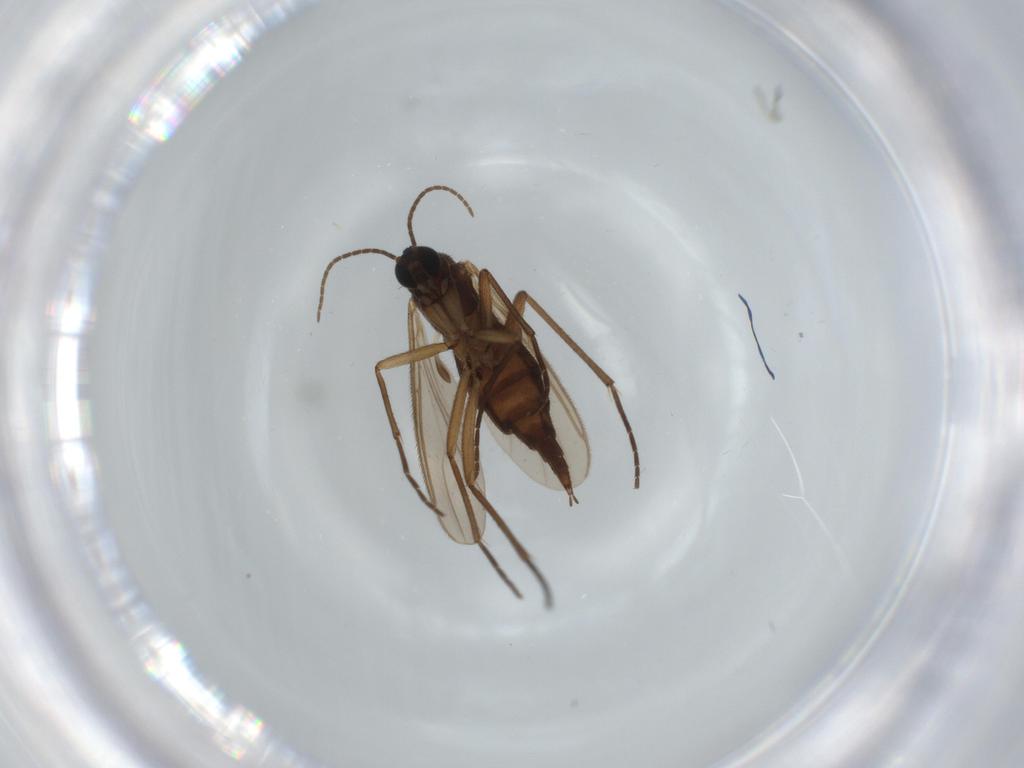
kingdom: Animalia
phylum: Arthropoda
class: Insecta
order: Diptera
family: Sciaridae
